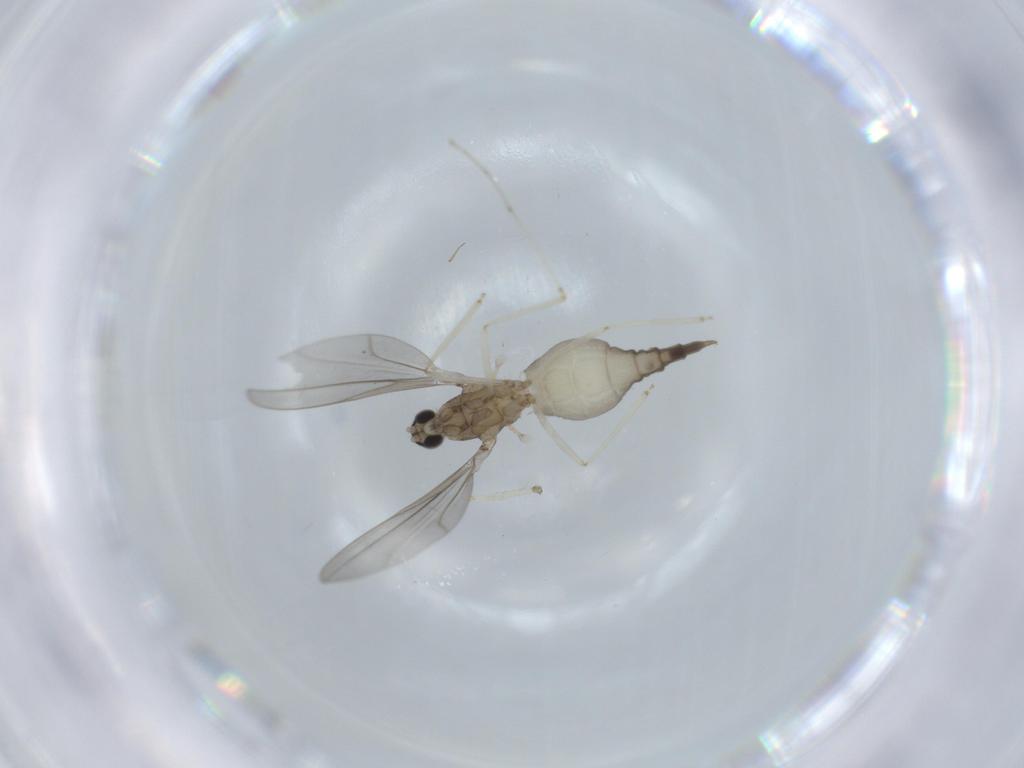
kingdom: Animalia
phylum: Arthropoda
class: Insecta
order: Diptera
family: Cecidomyiidae
